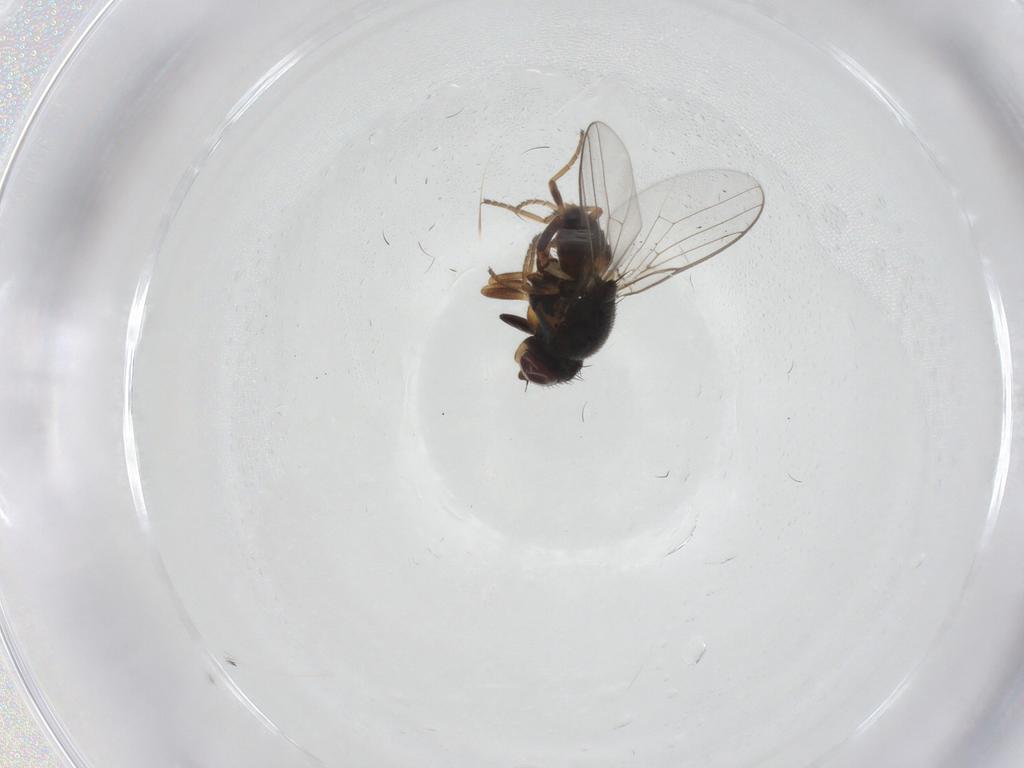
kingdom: Animalia
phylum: Arthropoda
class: Insecta
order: Diptera
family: Chloropidae
